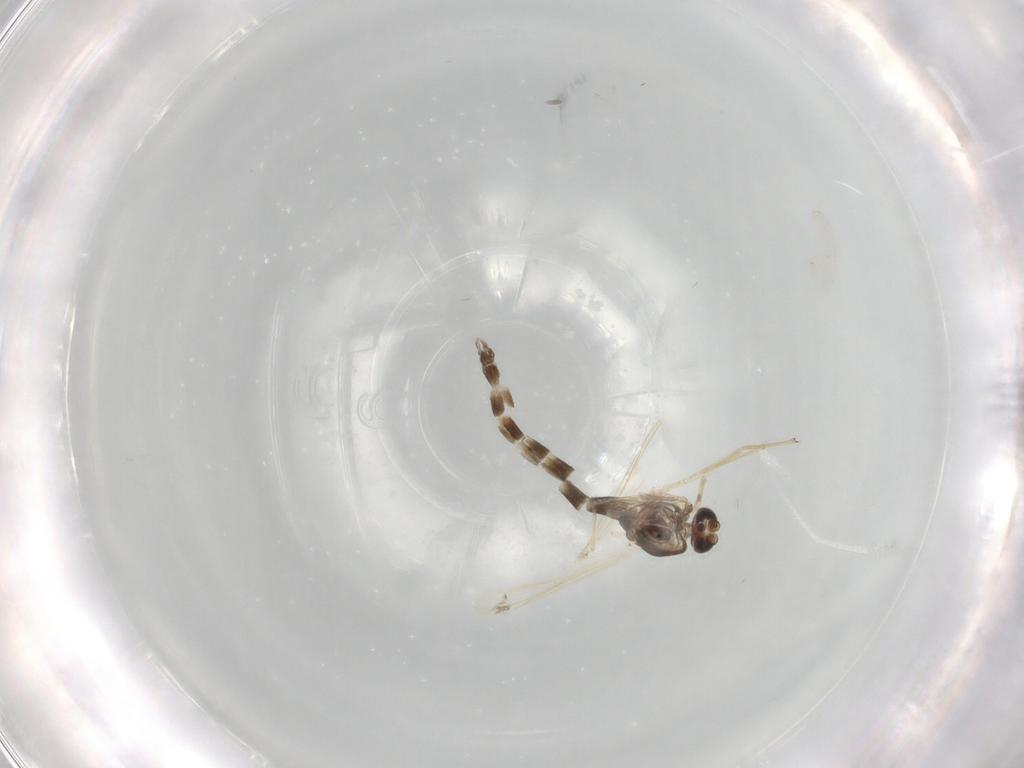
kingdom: Animalia
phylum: Arthropoda
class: Insecta
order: Diptera
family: Chironomidae
